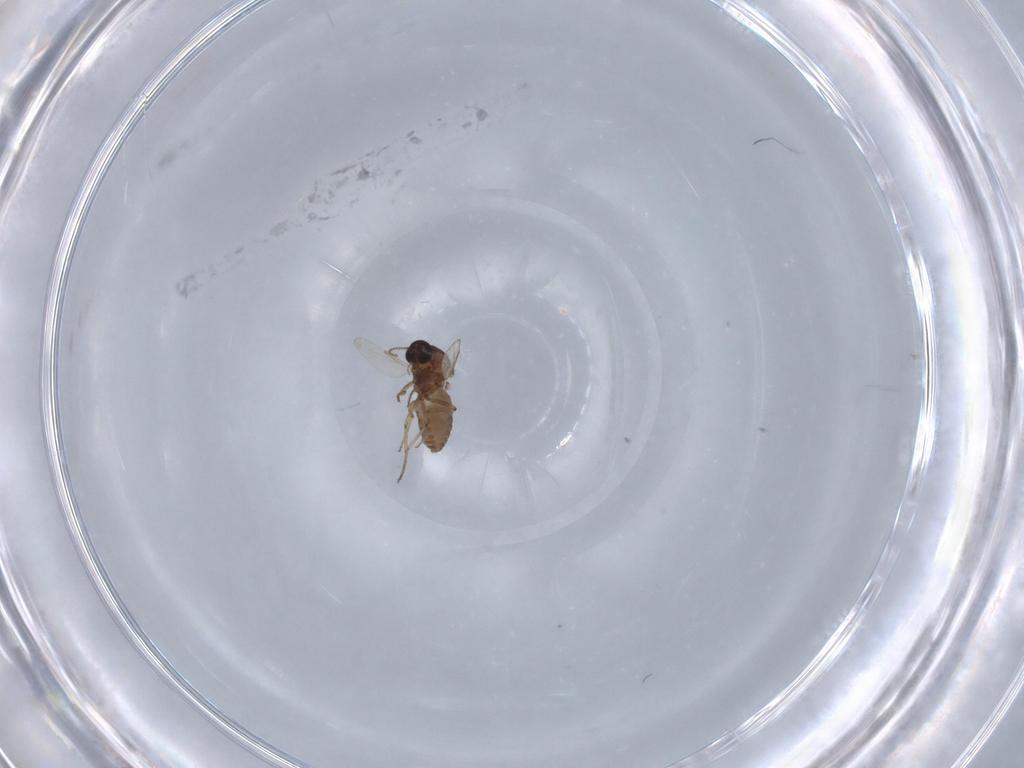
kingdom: Animalia
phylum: Arthropoda
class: Insecta
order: Diptera
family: Ceratopogonidae
